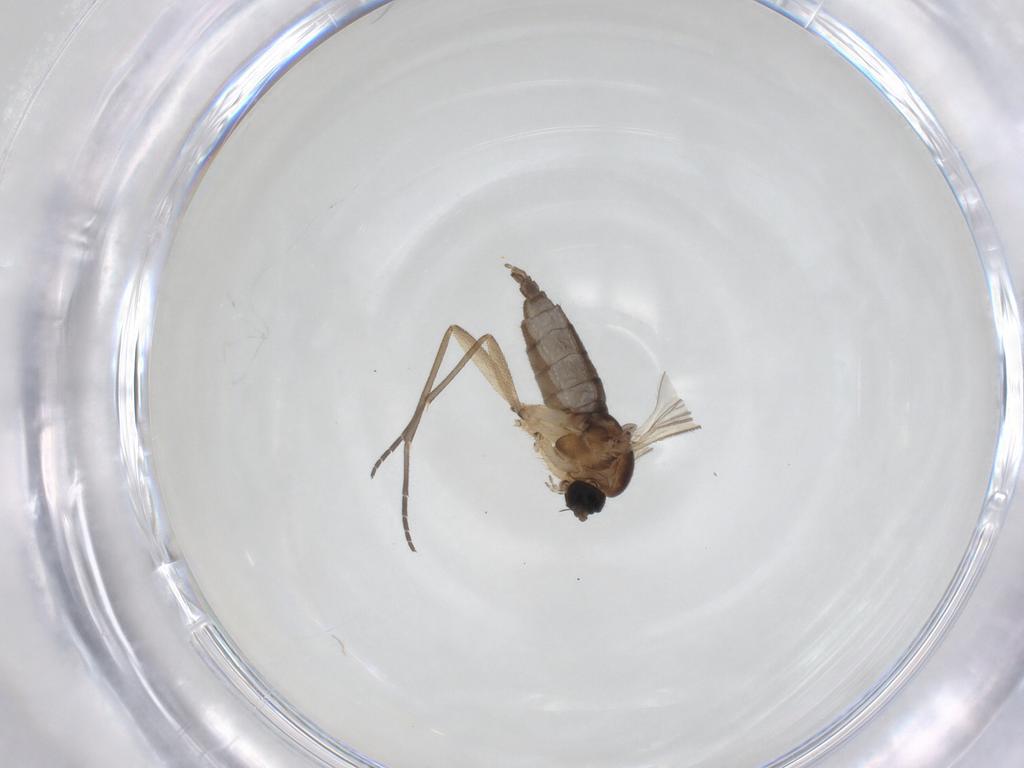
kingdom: Animalia
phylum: Arthropoda
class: Insecta
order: Diptera
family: Sciaridae
